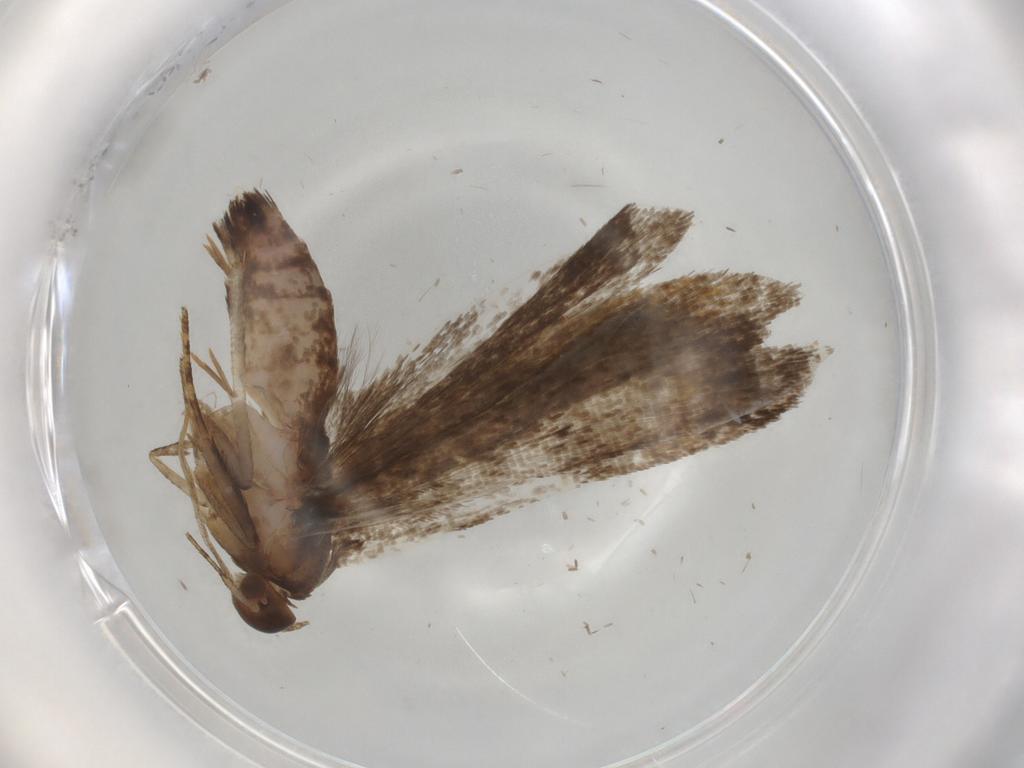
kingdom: Animalia
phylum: Arthropoda
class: Insecta
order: Lepidoptera
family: Gelechiidae
